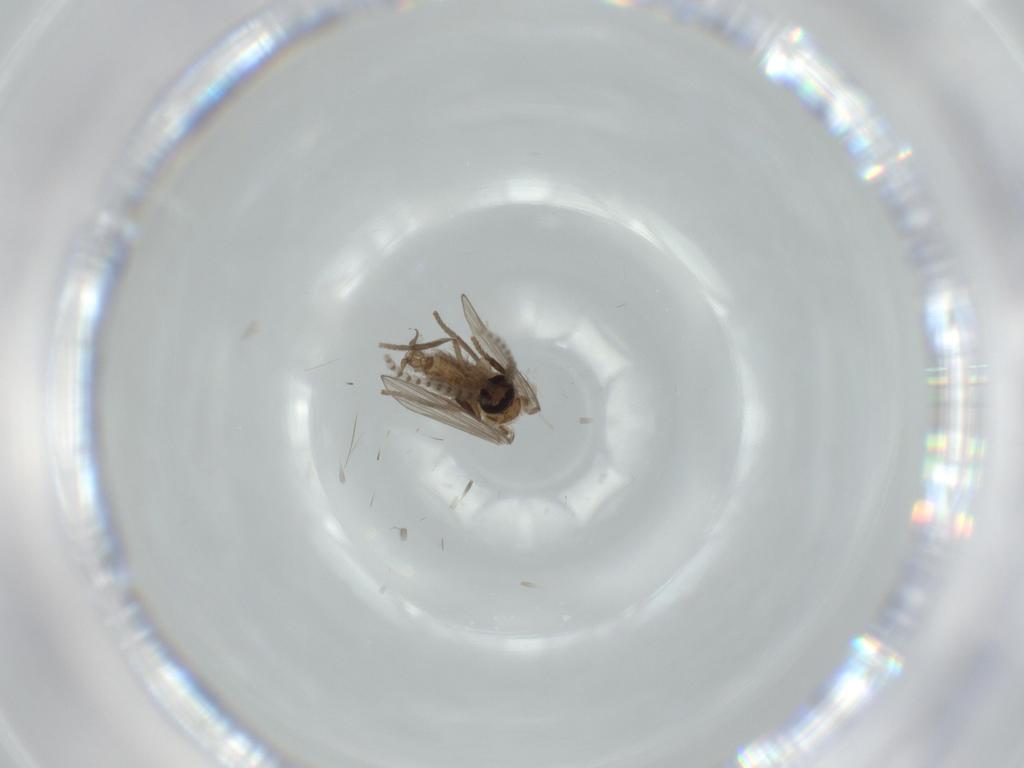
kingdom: Animalia
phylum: Arthropoda
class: Insecta
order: Diptera
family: Psychodidae
